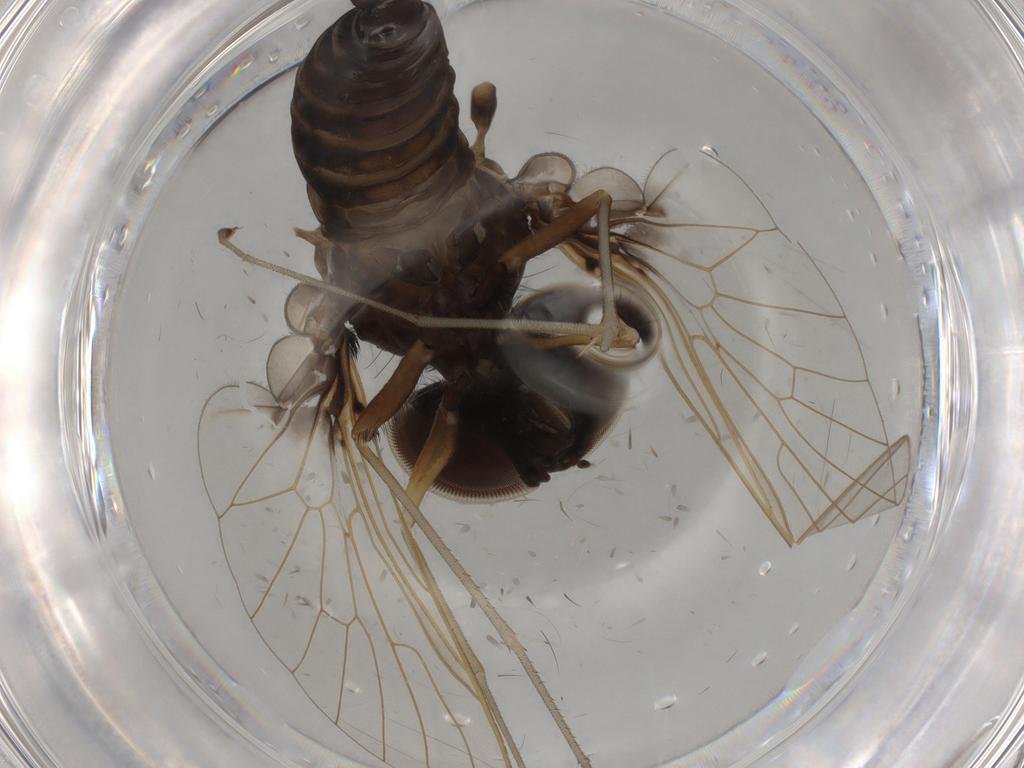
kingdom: Animalia
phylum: Arthropoda
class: Insecta
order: Diptera
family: Rhagionidae
